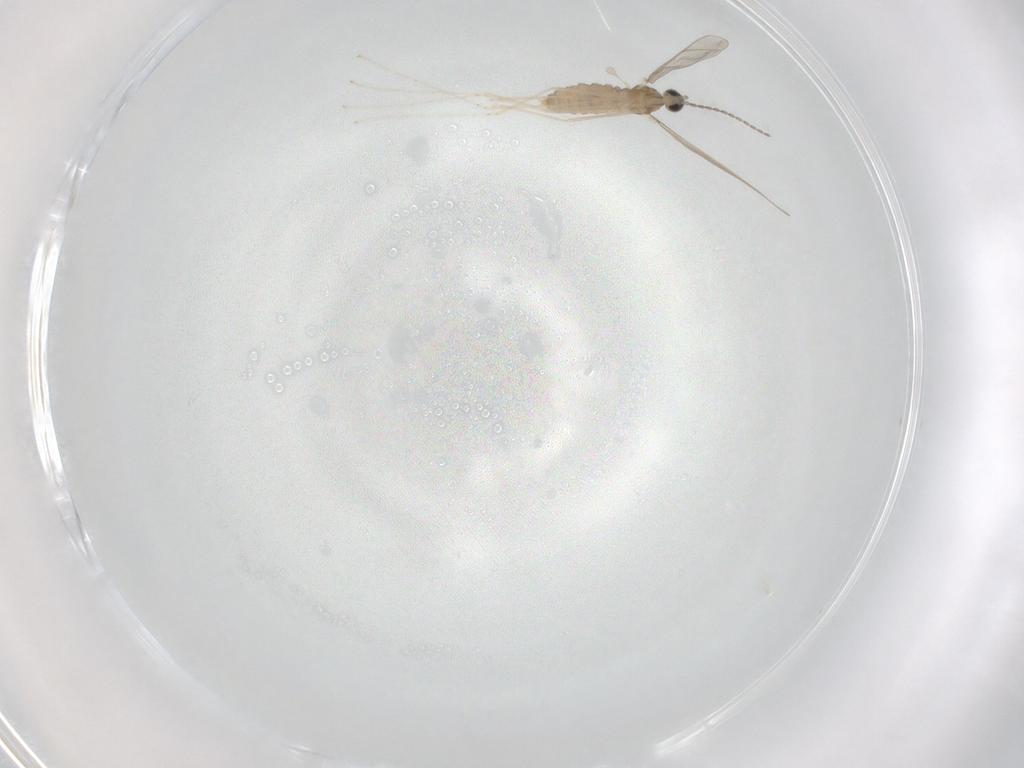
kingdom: Animalia
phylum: Arthropoda
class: Insecta
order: Diptera
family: Cecidomyiidae
